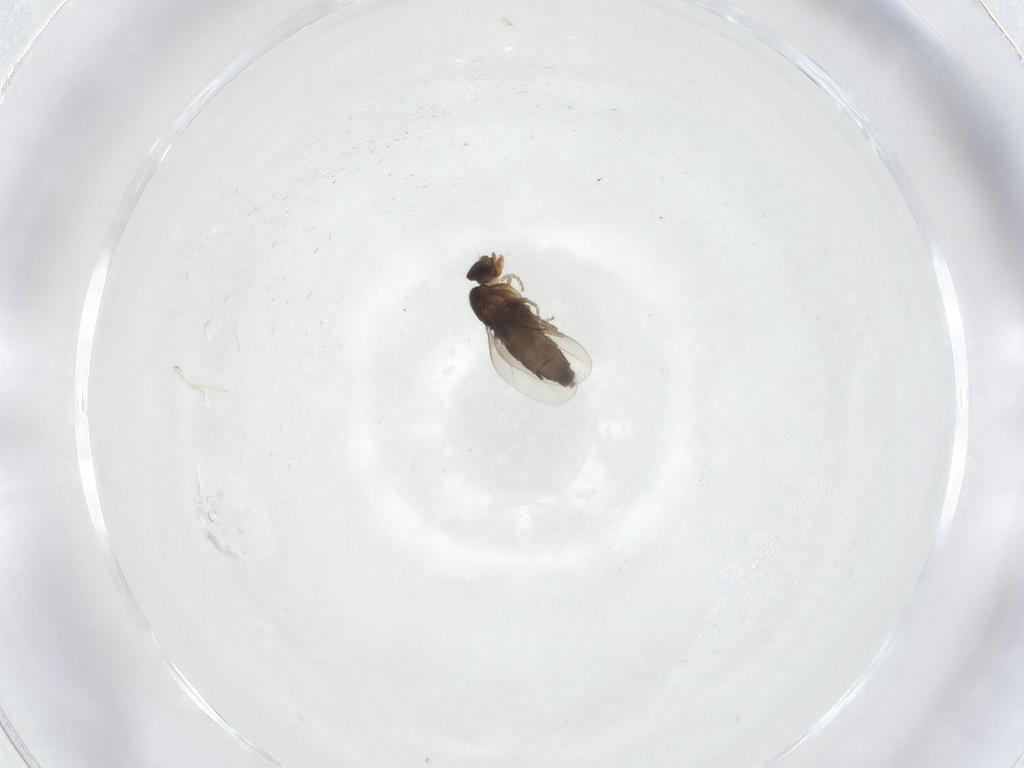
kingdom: Animalia
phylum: Arthropoda
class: Insecta
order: Diptera
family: Phoridae
